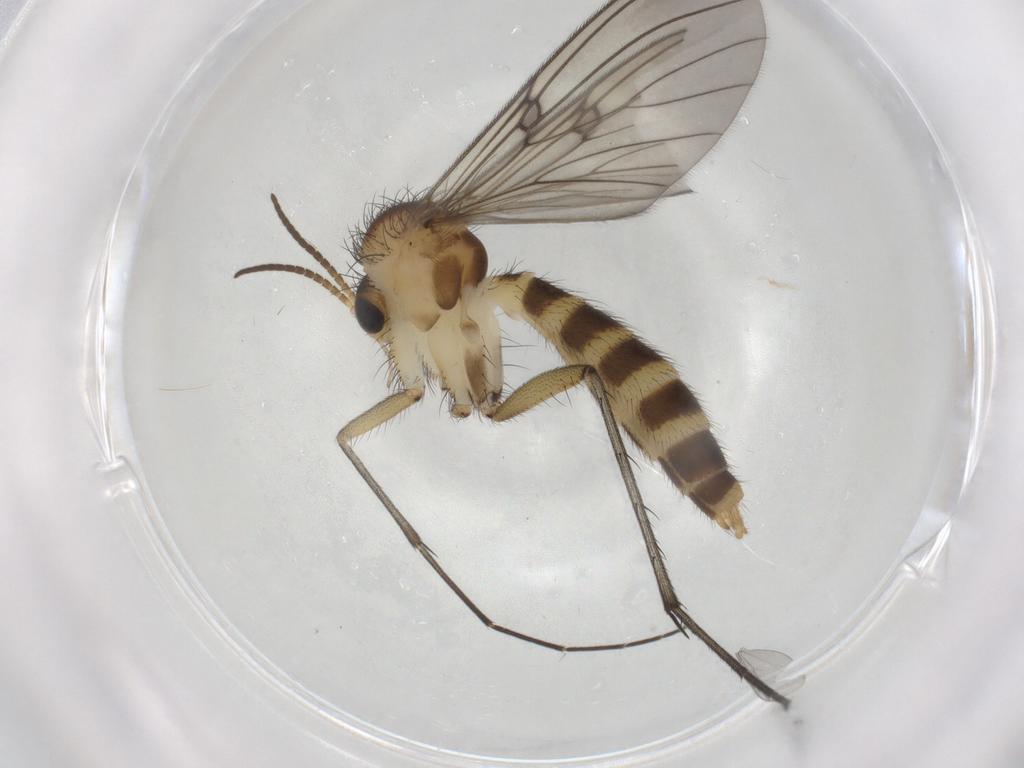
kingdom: Animalia
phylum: Arthropoda
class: Insecta
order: Diptera
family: Mycetophilidae
